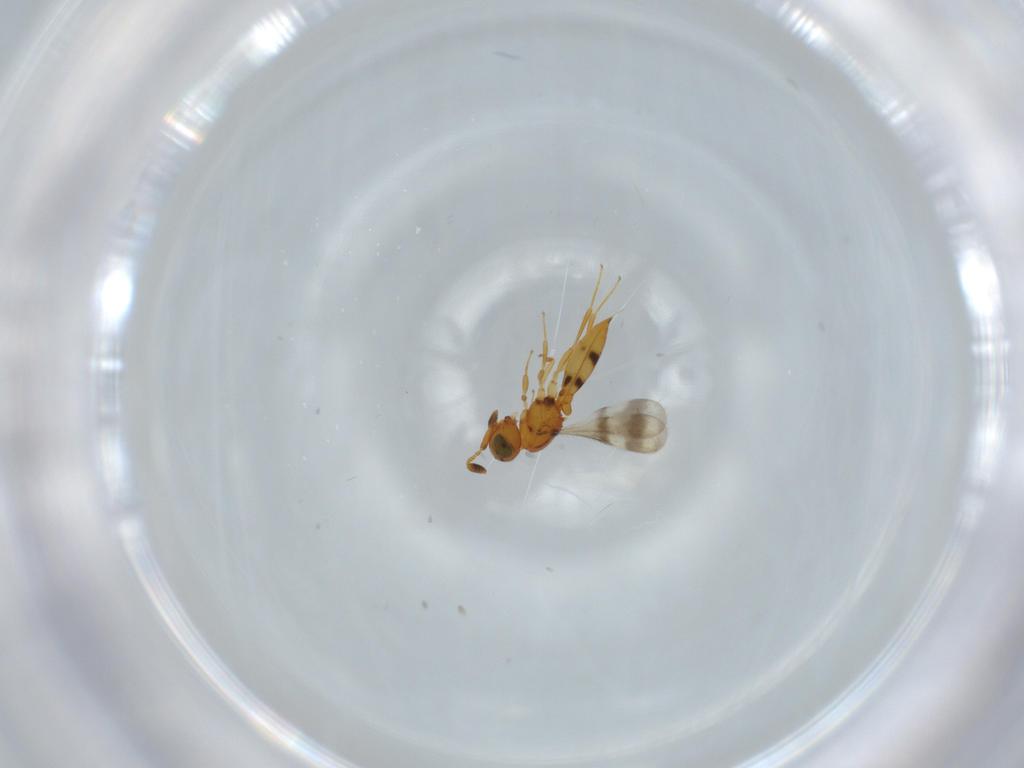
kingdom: Animalia
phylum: Arthropoda
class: Insecta
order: Hymenoptera
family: Scelionidae
